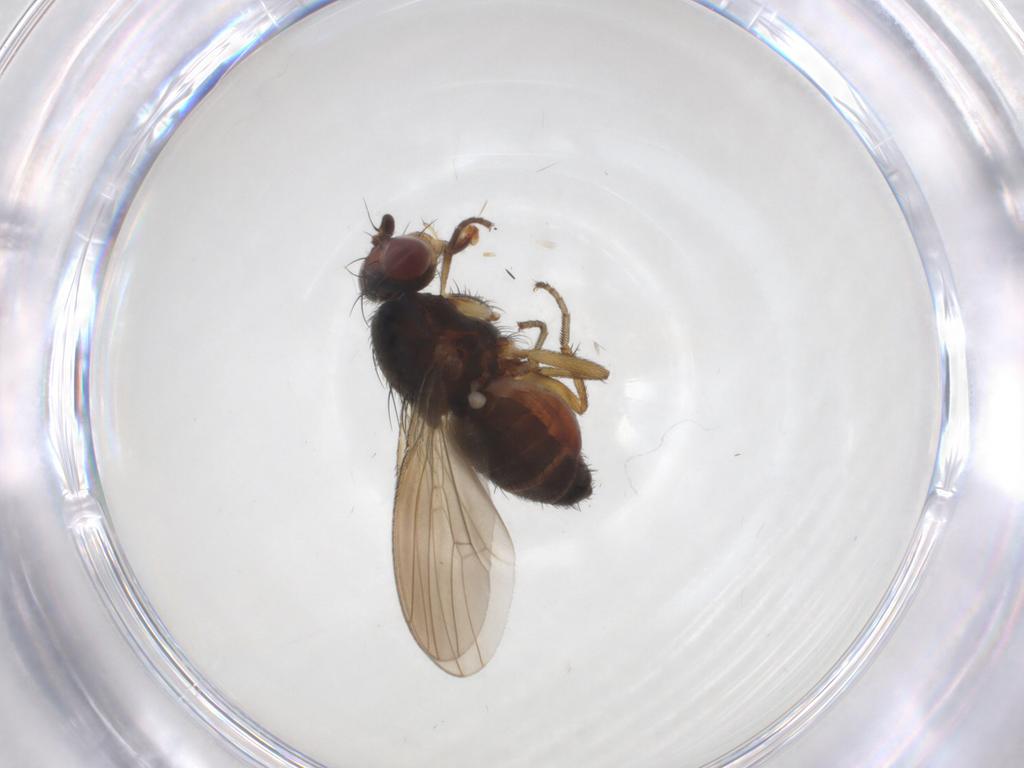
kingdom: Animalia
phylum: Arthropoda
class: Insecta
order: Diptera
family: Heleomyzidae
